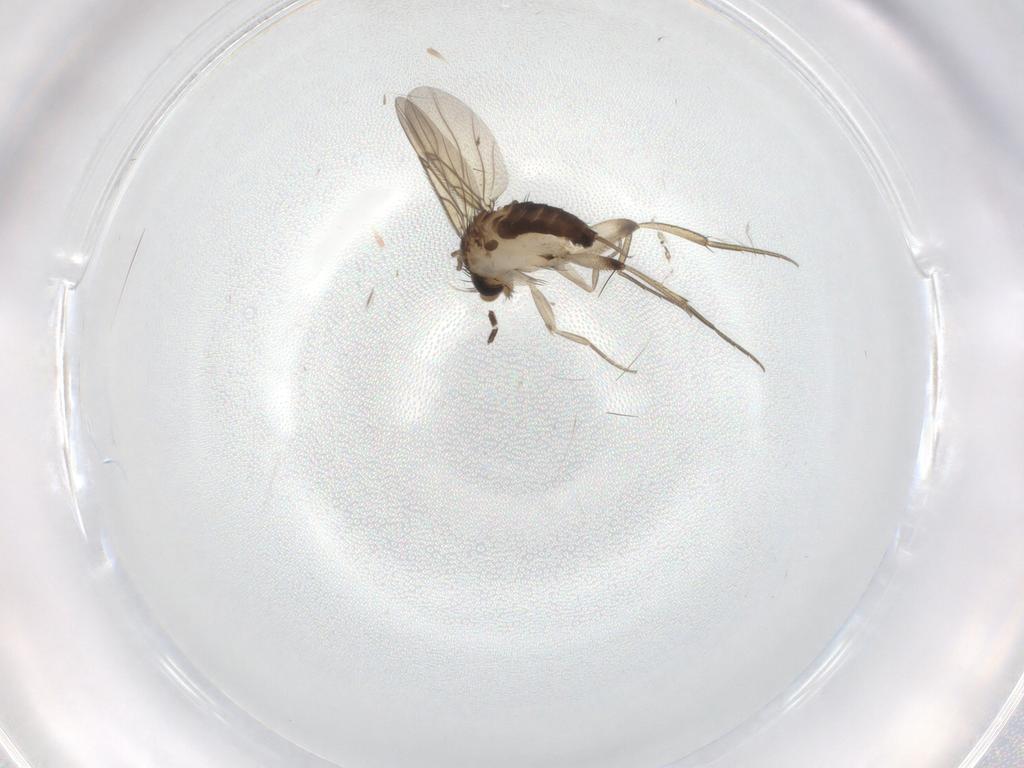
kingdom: Animalia
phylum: Arthropoda
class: Insecta
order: Diptera
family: Phoridae
